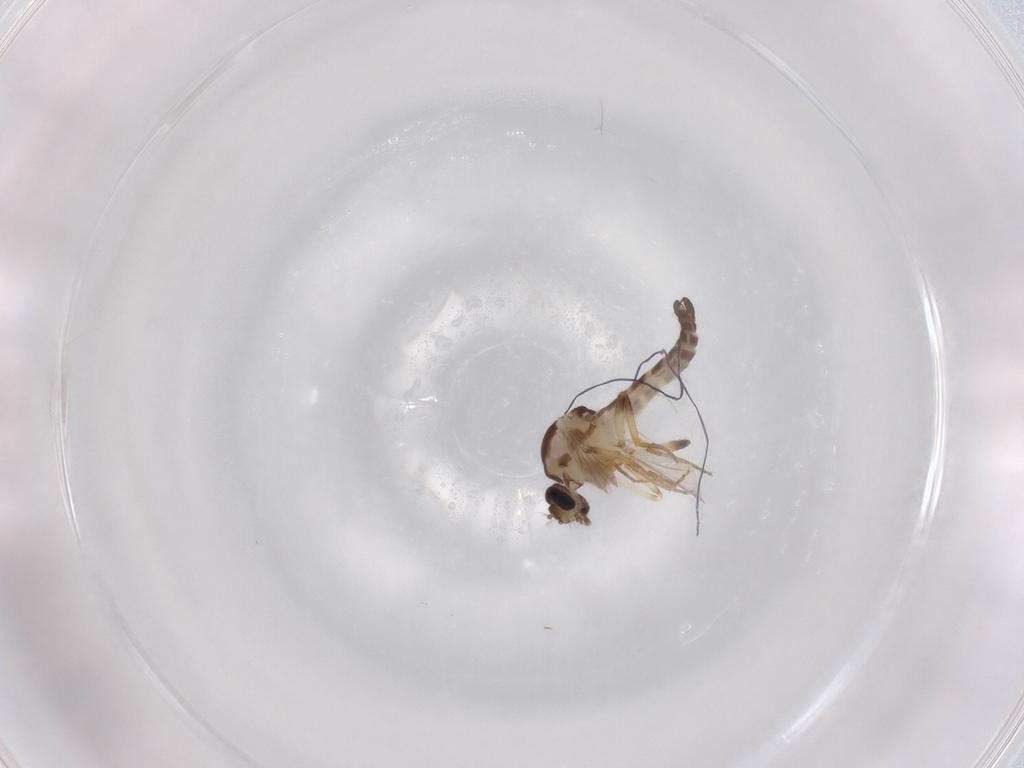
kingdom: Animalia
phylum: Arthropoda
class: Insecta
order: Diptera
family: Ceratopogonidae
